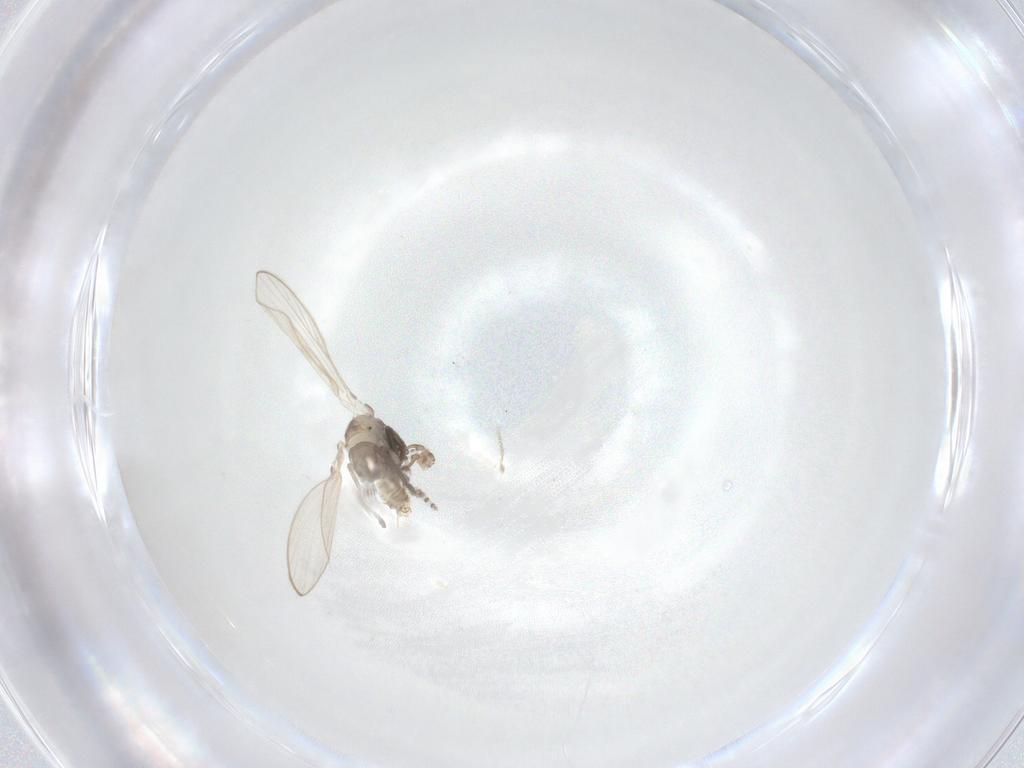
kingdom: Animalia
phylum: Arthropoda
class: Insecta
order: Diptera
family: Psychodidae
